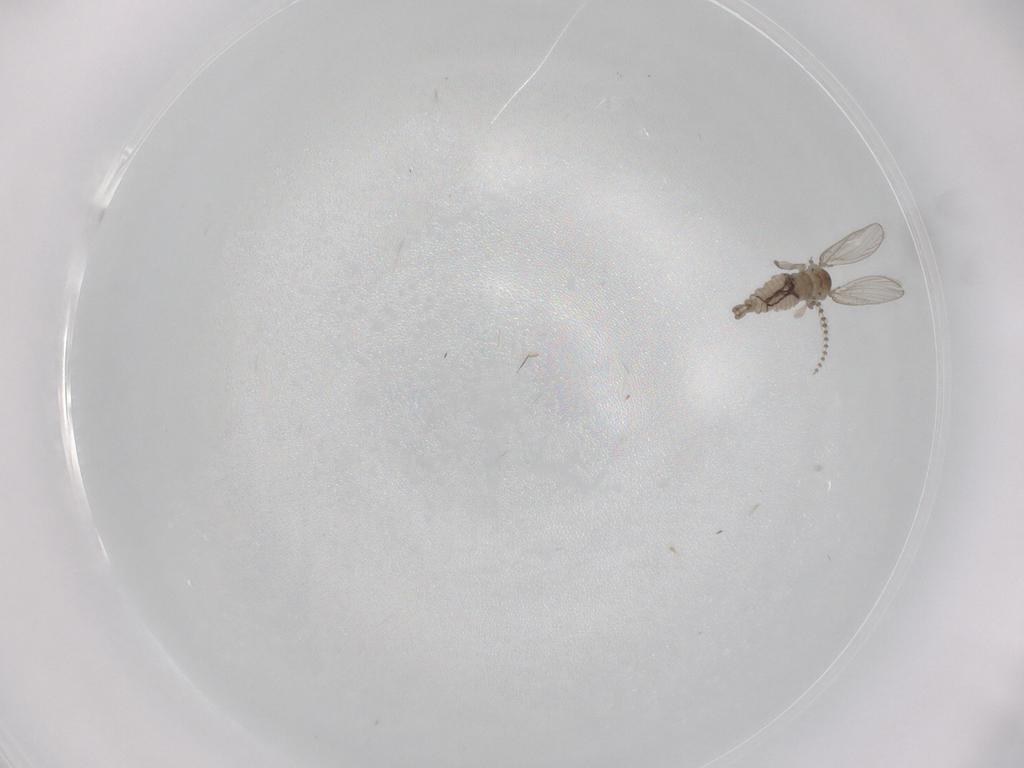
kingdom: Animalia
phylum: Arthropoda
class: Insecta
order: Diptera
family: Psychodidae
